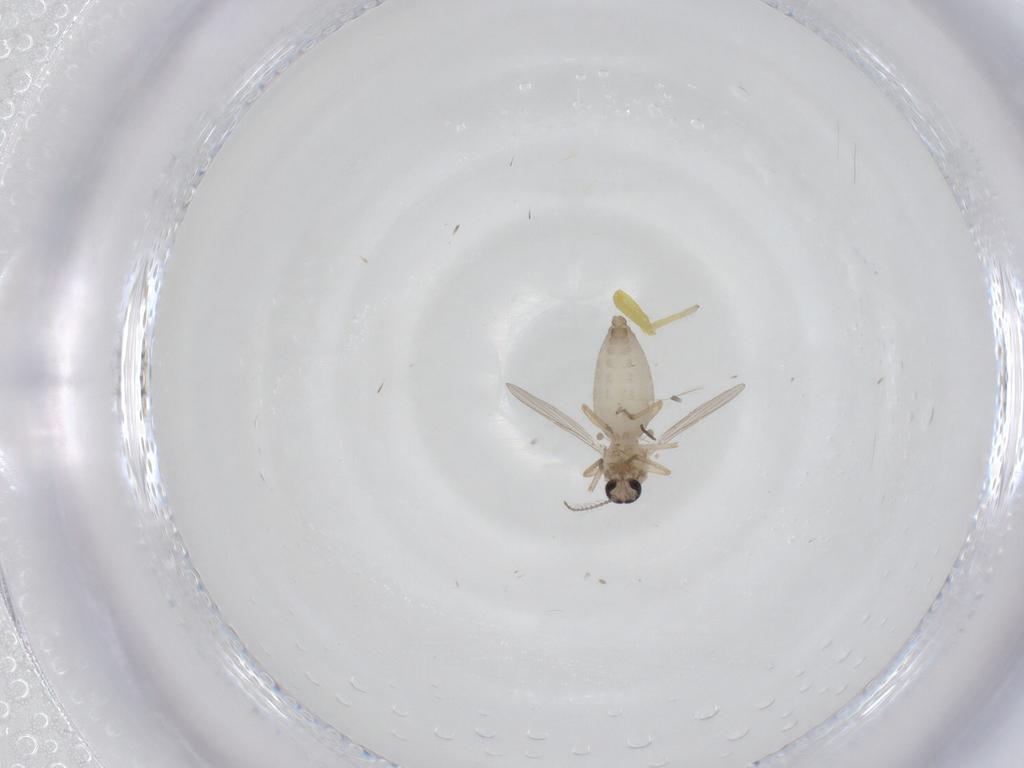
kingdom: Animalia
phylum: Arthropoda
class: Insecta
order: Diptera
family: Ceratopogonidae
